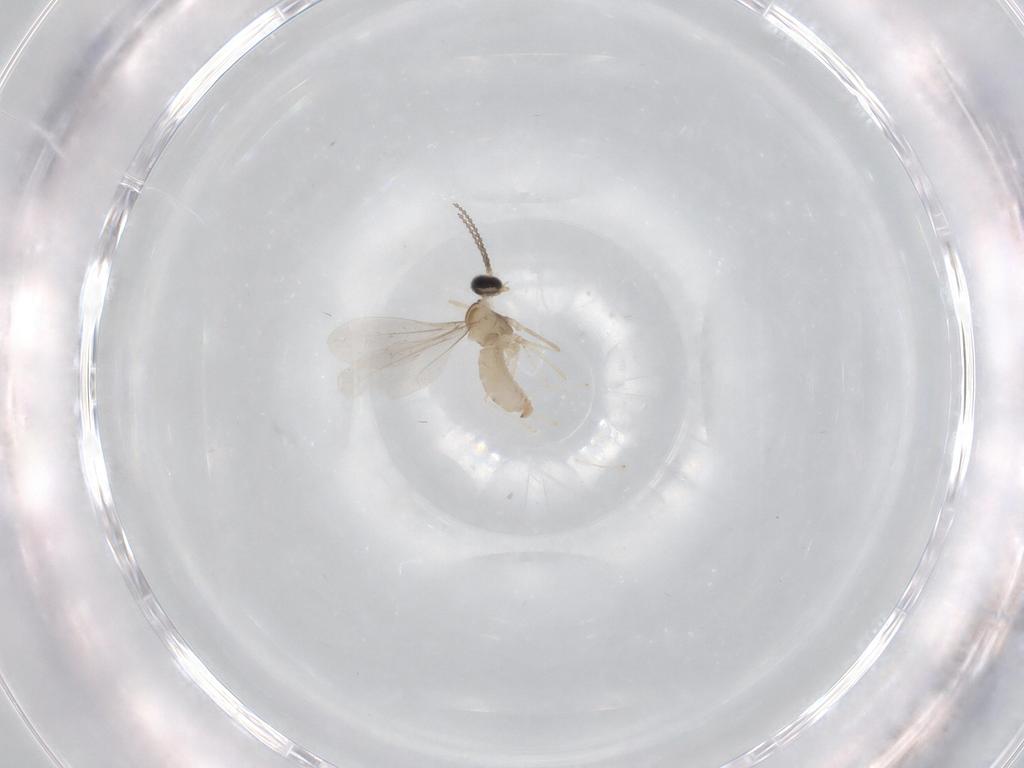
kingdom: Animalia
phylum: Arthropoda
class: Insecta
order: Diptera
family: Cecidomyiidae
